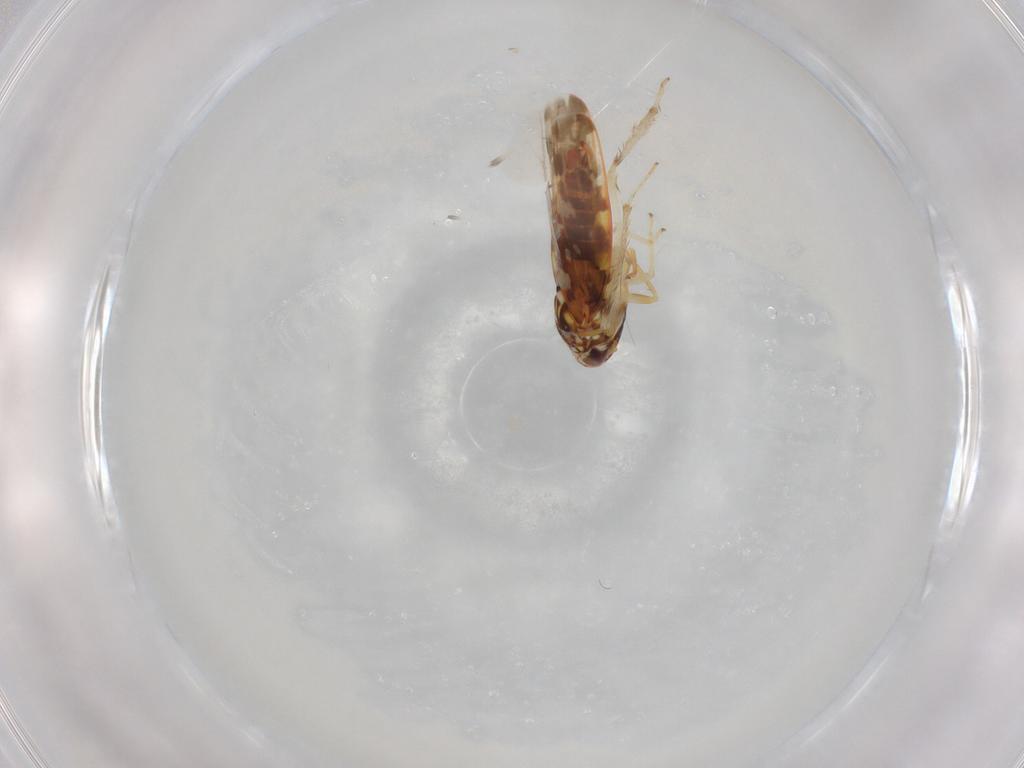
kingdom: Animalia
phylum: Arthropoda
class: Insecta
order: Hemiptera
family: Cicadellidae
